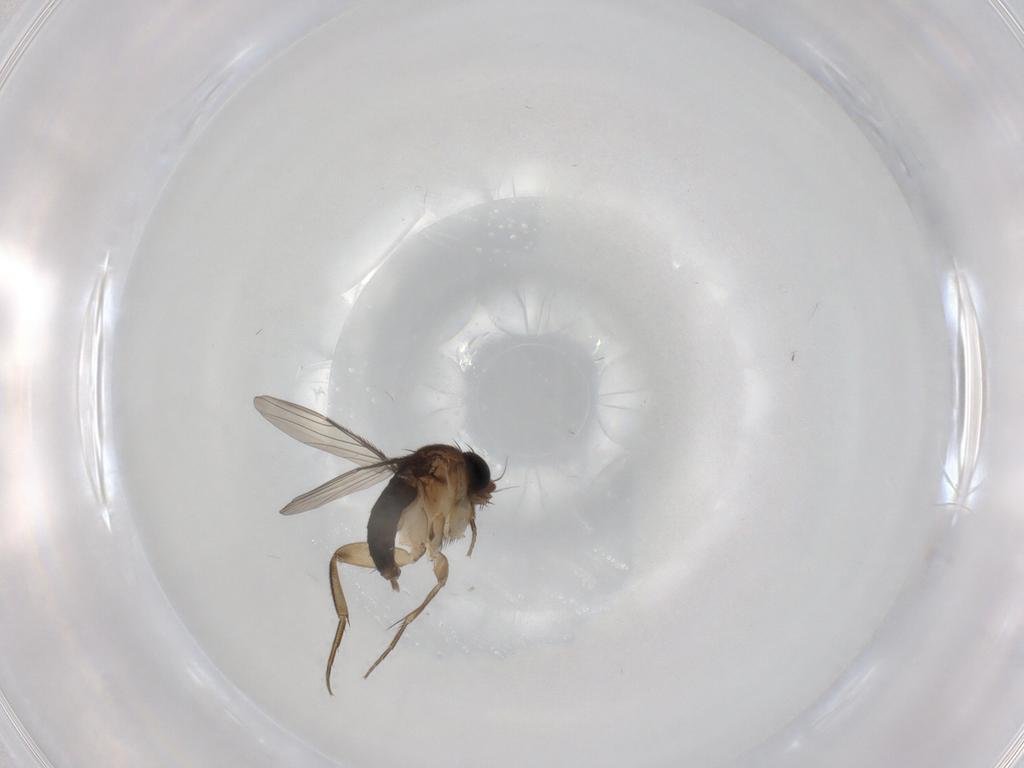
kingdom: Animalia
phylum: Arthropoda
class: Insecta
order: Diptera
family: Phoridae
